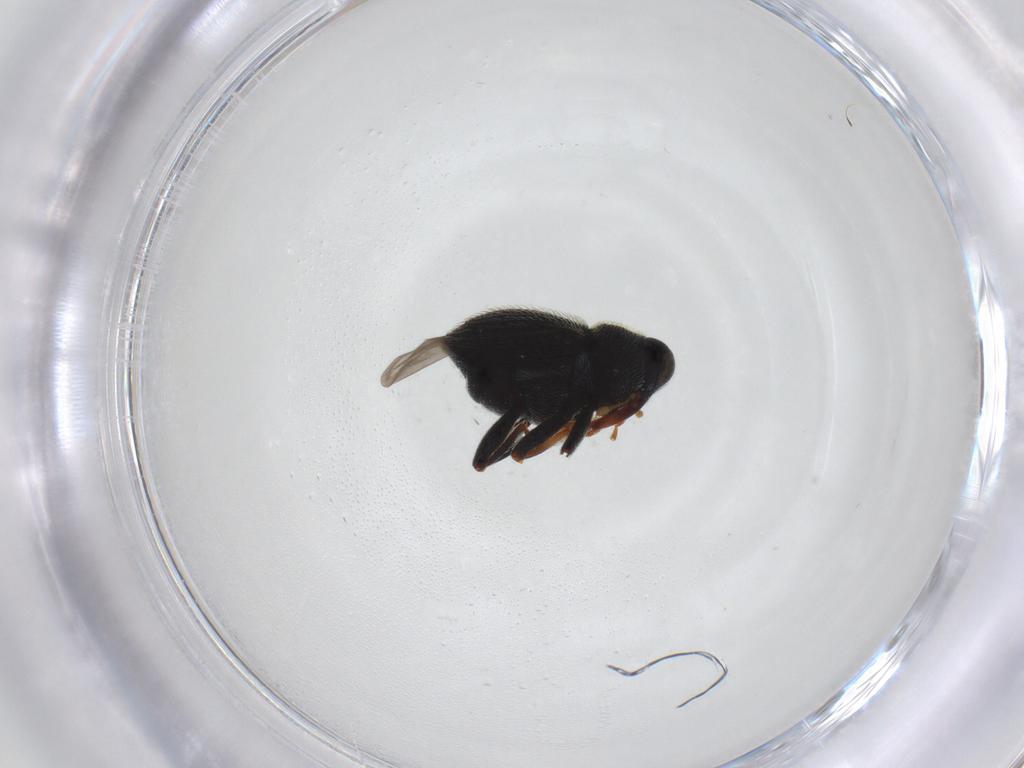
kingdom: Animalia
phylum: Arthropoda
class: Insecta
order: Coleoptera
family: Curculionidae
